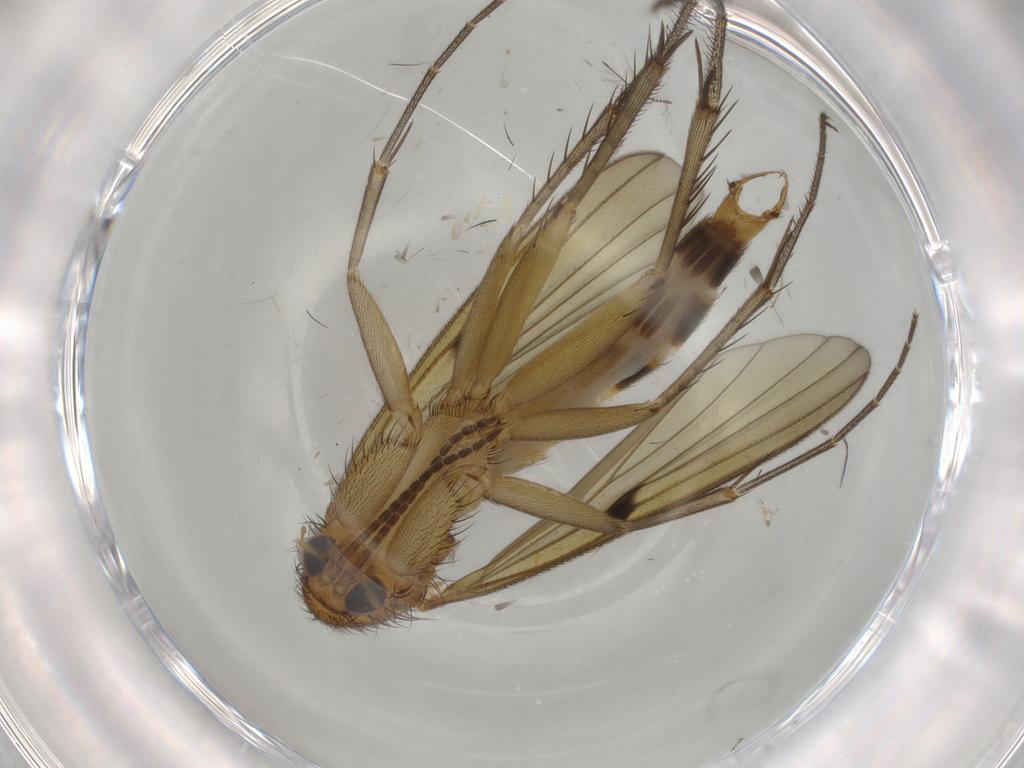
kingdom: Animalia
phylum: Arthropoda
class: Insecta
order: Diptera
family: Mycetophilidae
